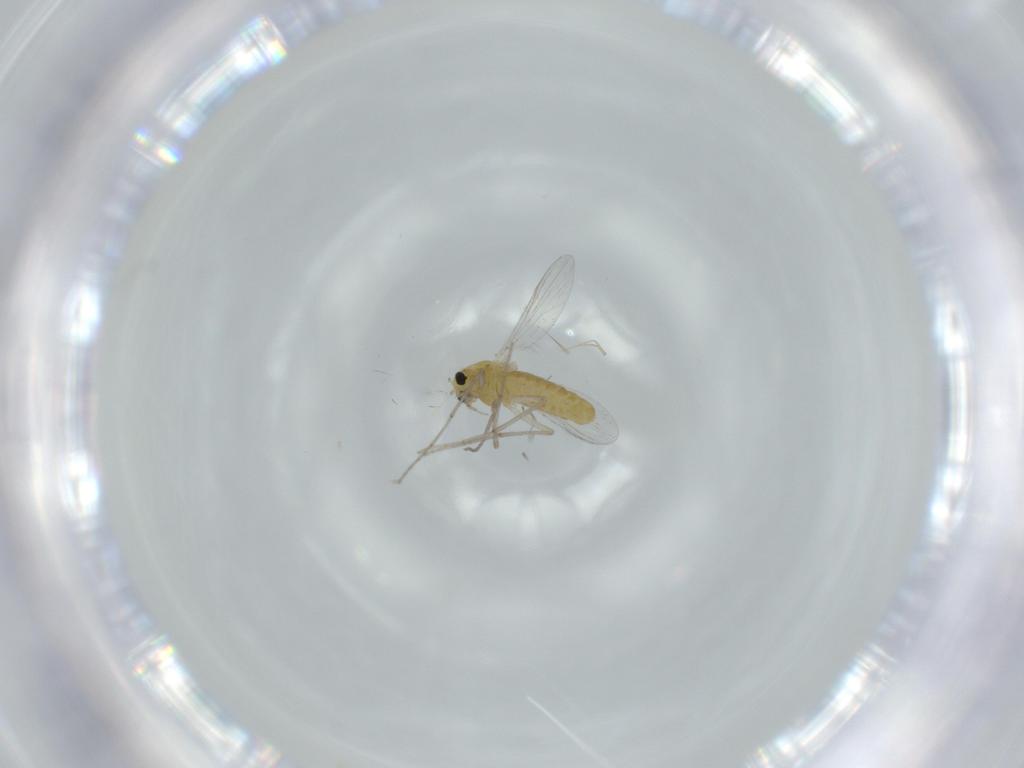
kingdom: Animalia
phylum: Arthropoda
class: Insecta
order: Diptera
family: Chironomidae
